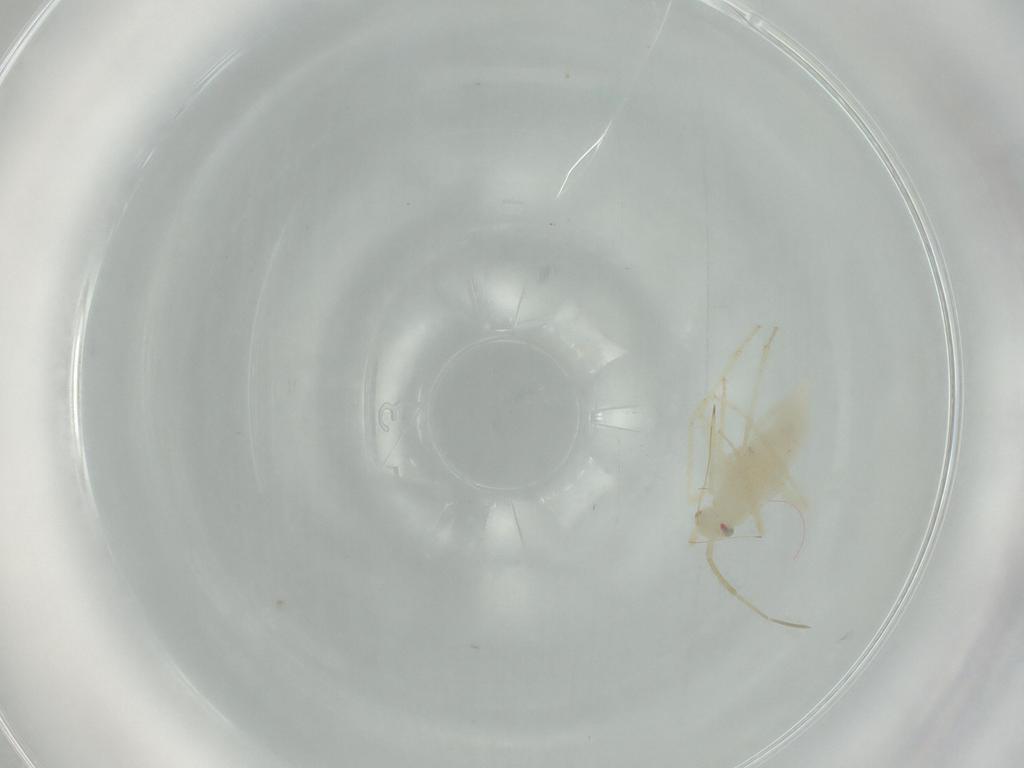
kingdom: Animalia
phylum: Arthropoda
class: Insecta
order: Hemiptera
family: Miridae
